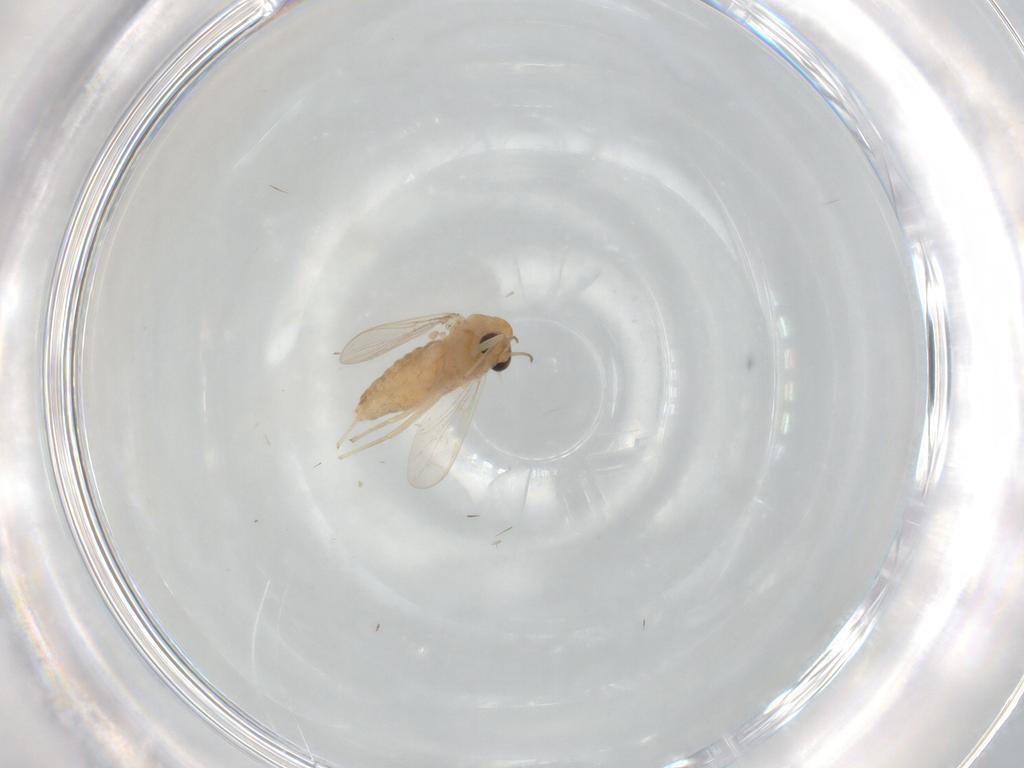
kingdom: Animalia
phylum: Arthropoda
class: Insecta
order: Diptera
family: Chironomidae
